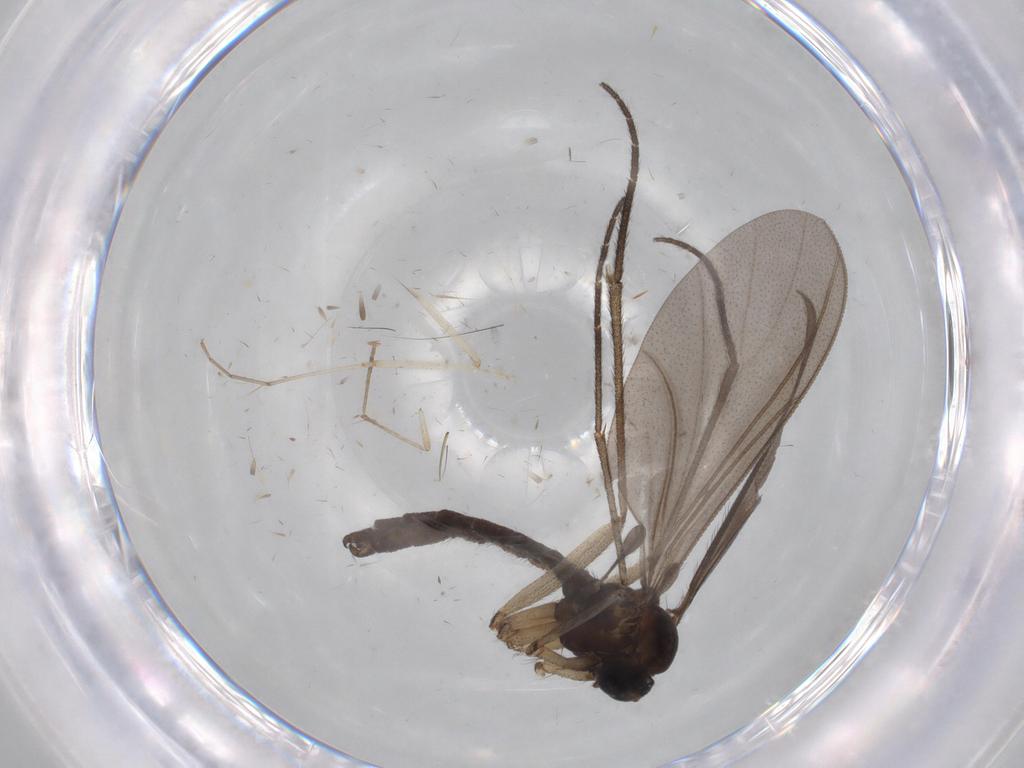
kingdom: Animalia
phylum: Arthropoda
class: Insecta
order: Diptera
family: Sciaridae
